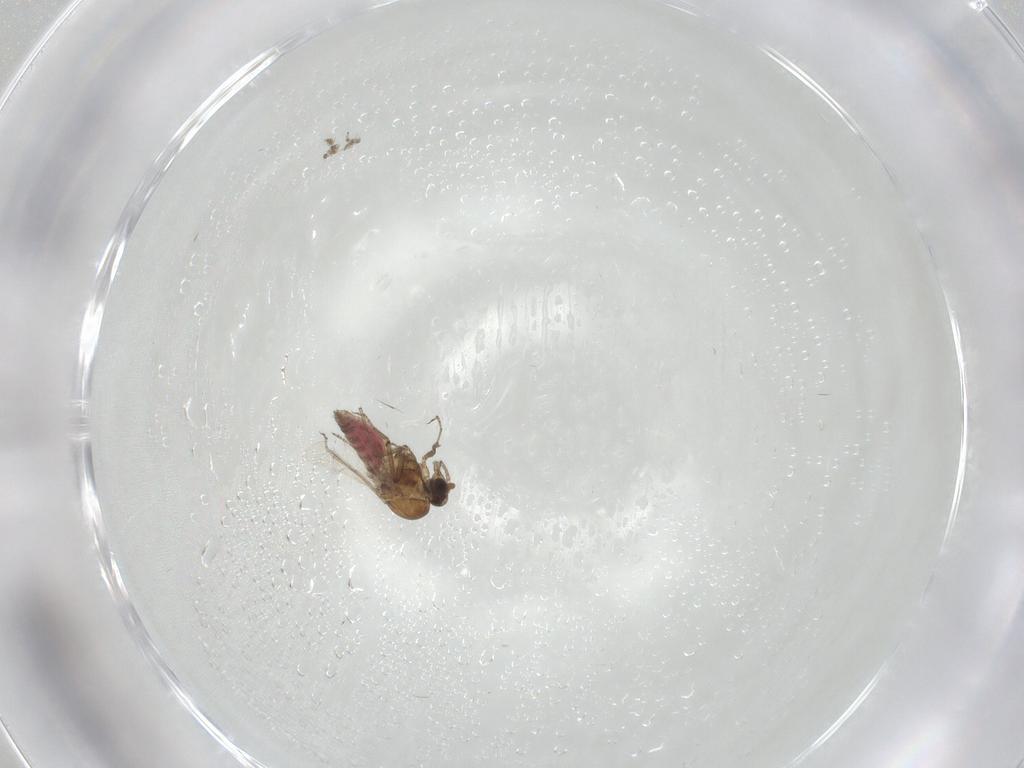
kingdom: Animalia
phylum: Arthropoda
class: Insecta
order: Diptera
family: Ceratopogonidae
